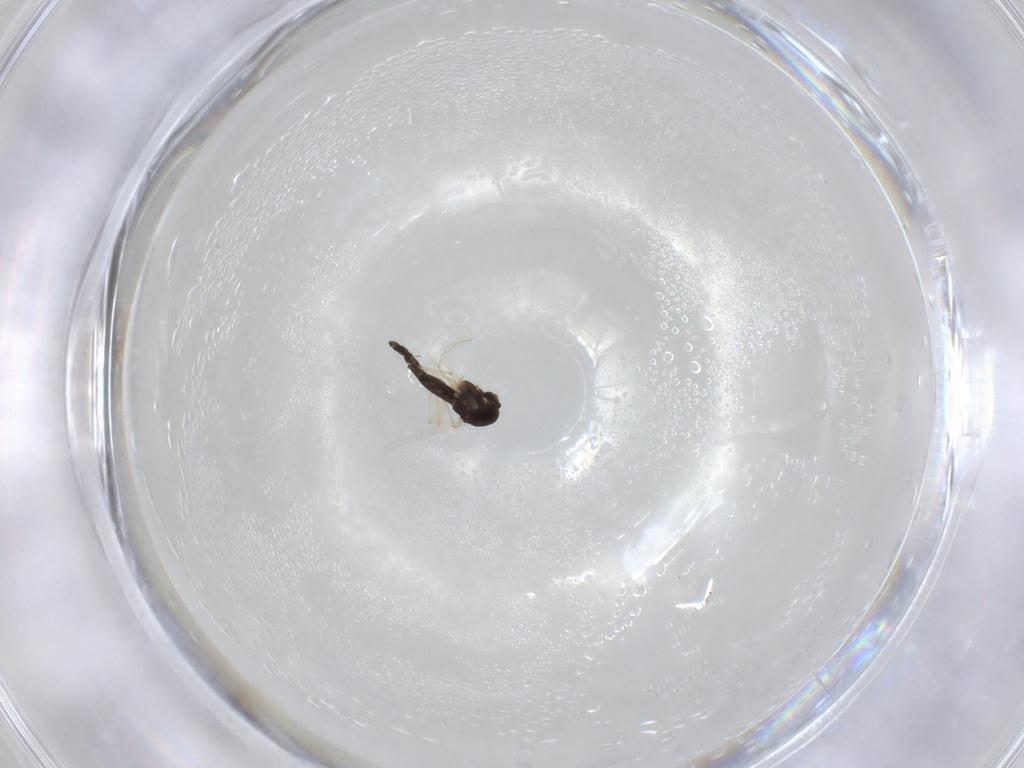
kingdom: Animalia
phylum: Arthropoda
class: Insecta
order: Diptera
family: Chironomidae
